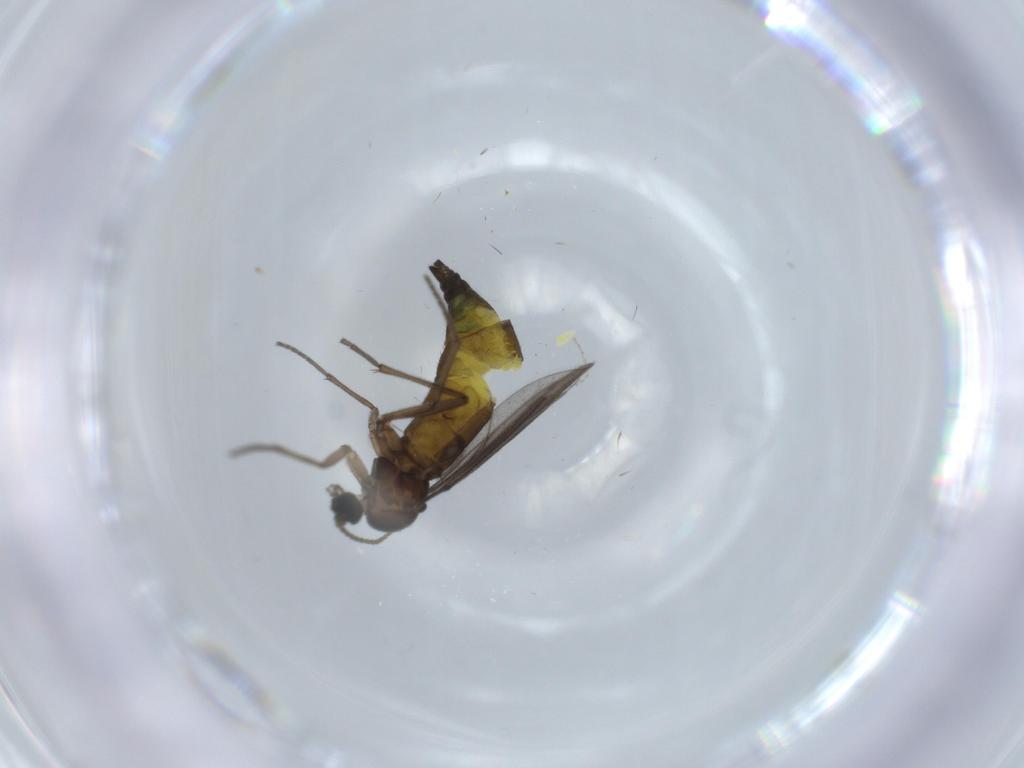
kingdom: Animalia
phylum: Arthropoda
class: Insecta
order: Diptera
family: Sciaridae
